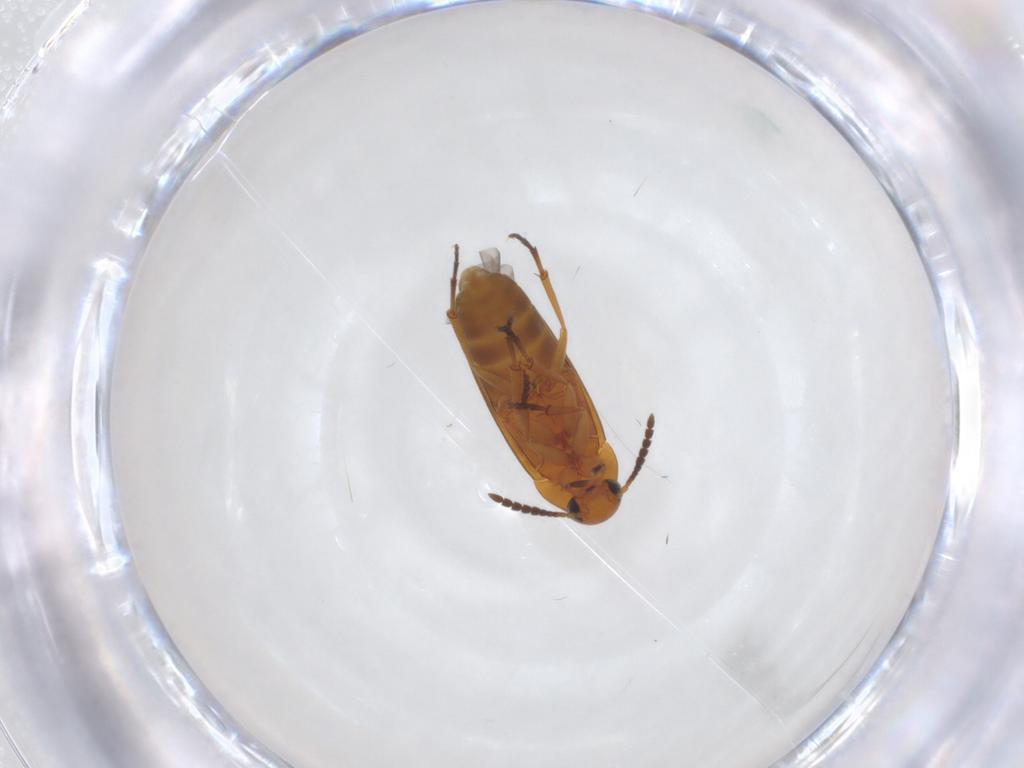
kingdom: Animalia
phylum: Arthropoda
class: Insecta
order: Coleoptera
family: Scraptiidae
